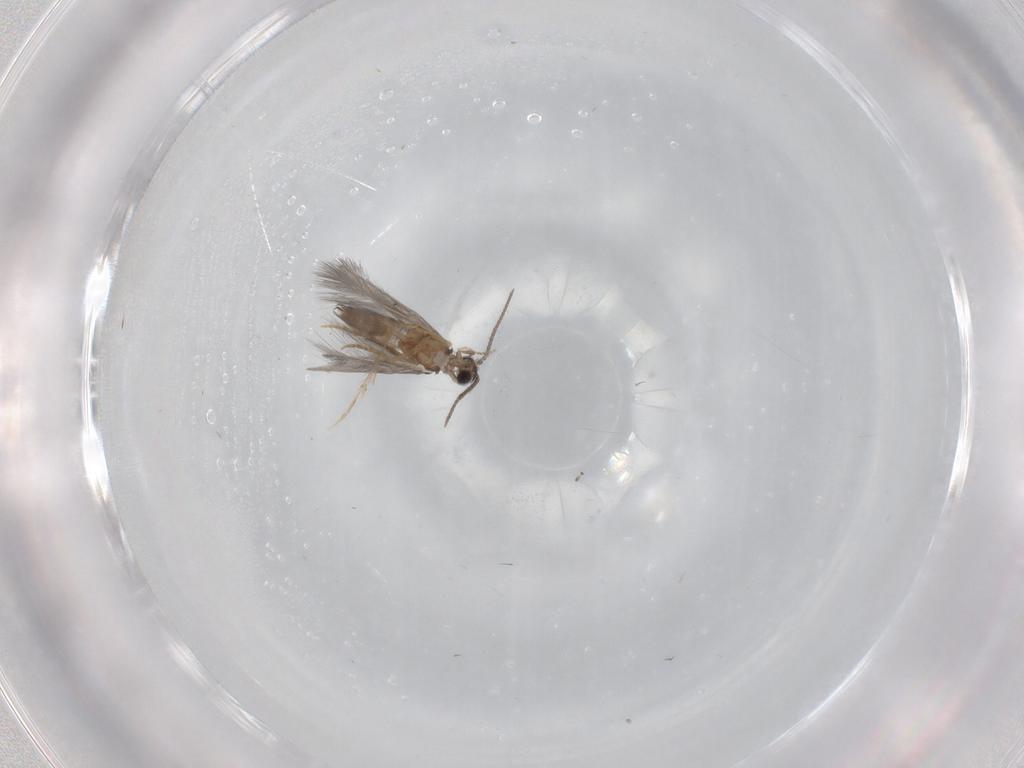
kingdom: Animalia
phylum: Arthropoda
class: Insecta
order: Trichoptera
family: Hydroptilidae
